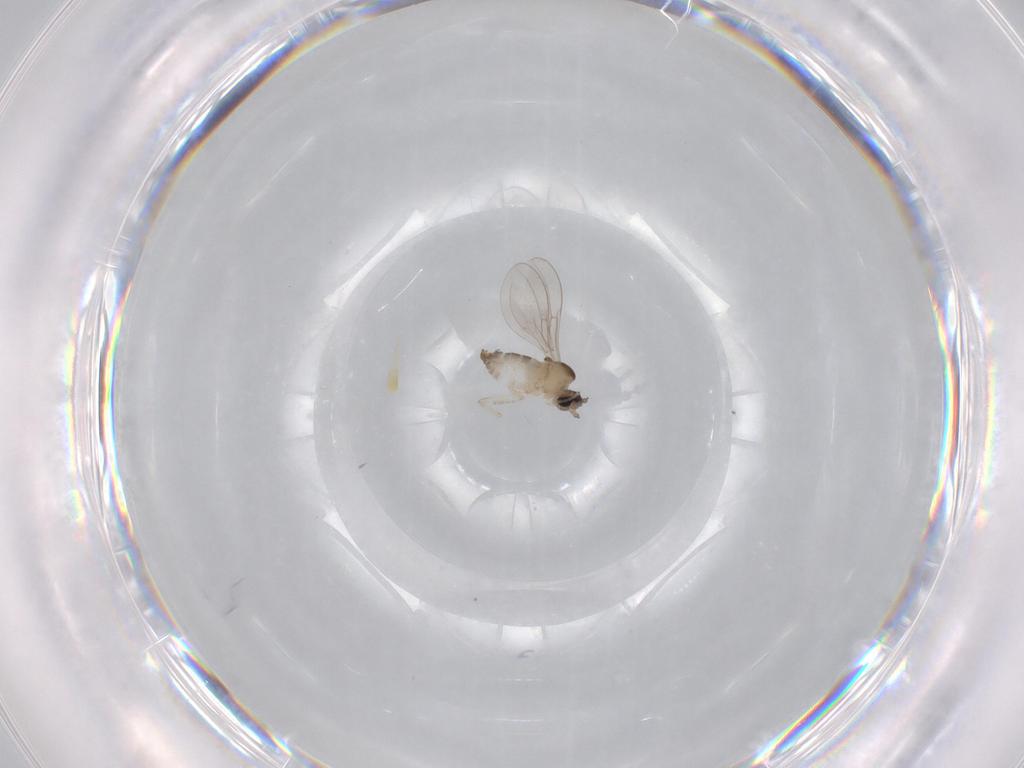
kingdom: Animalia
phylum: Arthropoda
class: Insecta
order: Diptera
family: Cecidomyiidae
